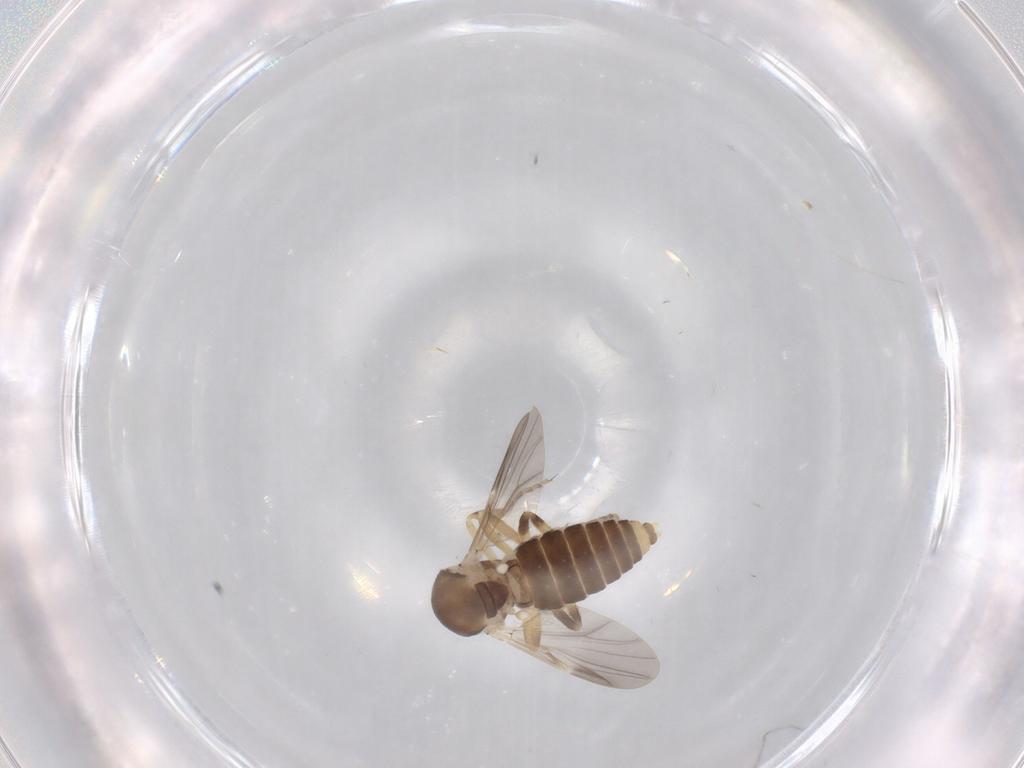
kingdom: Animalia
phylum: Arthropoda
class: Insecta
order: Diptera
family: Ceratopogonidae
